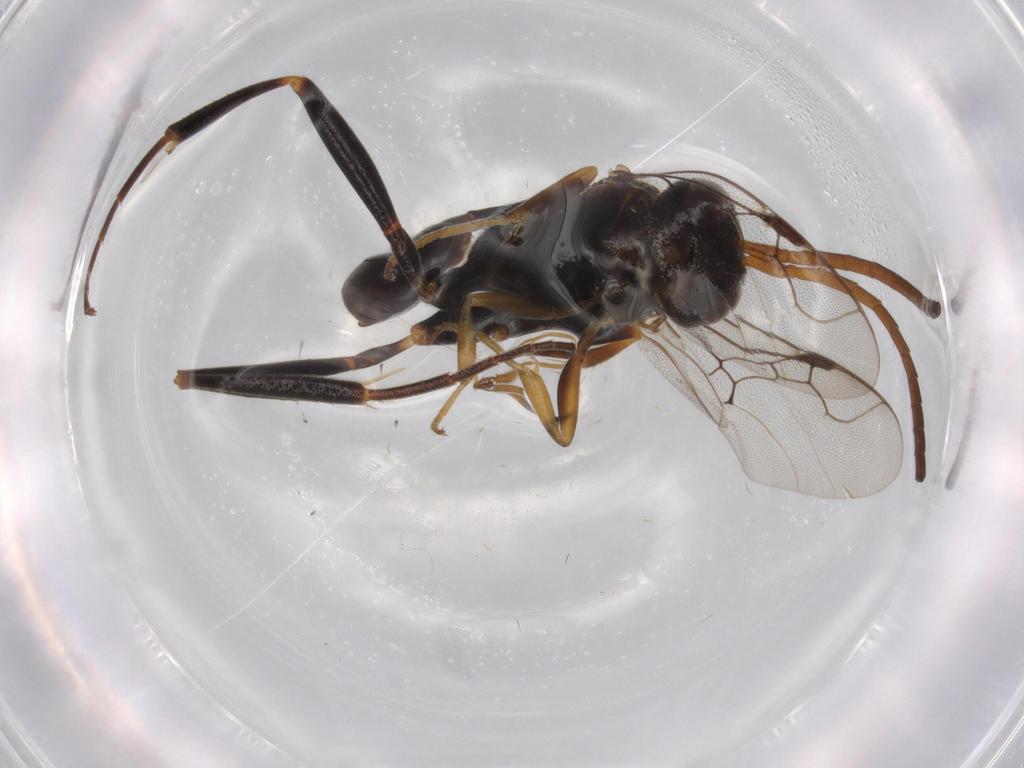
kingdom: Animalia
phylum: Arthropoda
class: Insecta
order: Hymenoptera
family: Evaniidae
